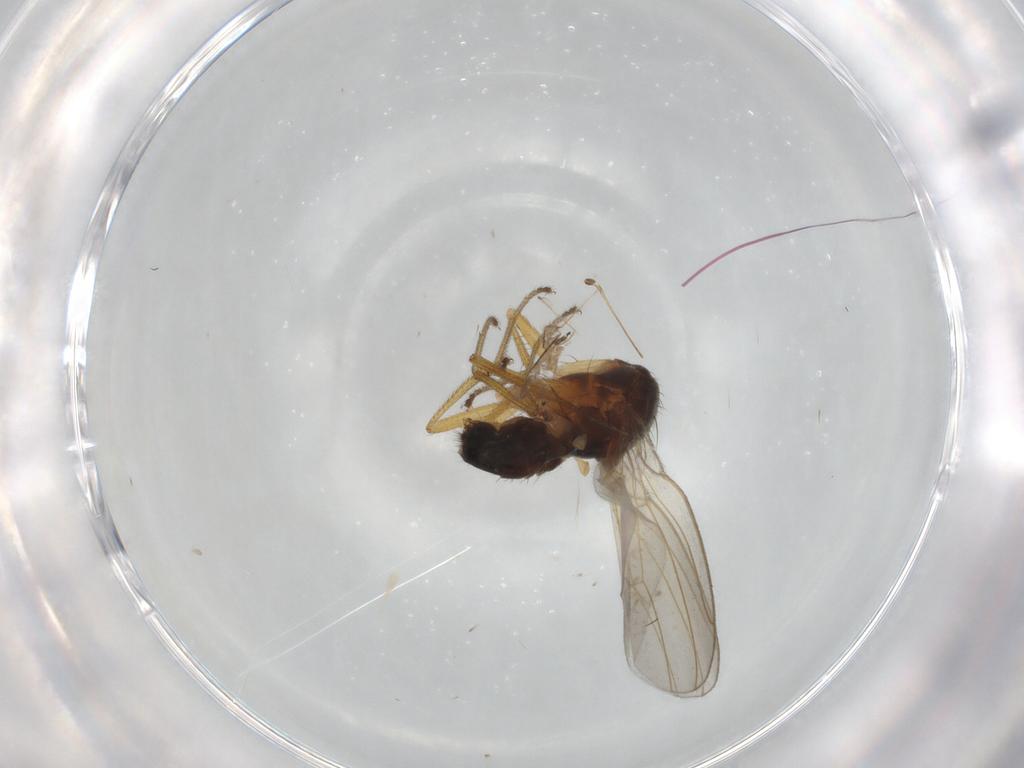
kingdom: Animalia
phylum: Arthropoda
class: Insecta
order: Diptera
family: Drosophilidae
